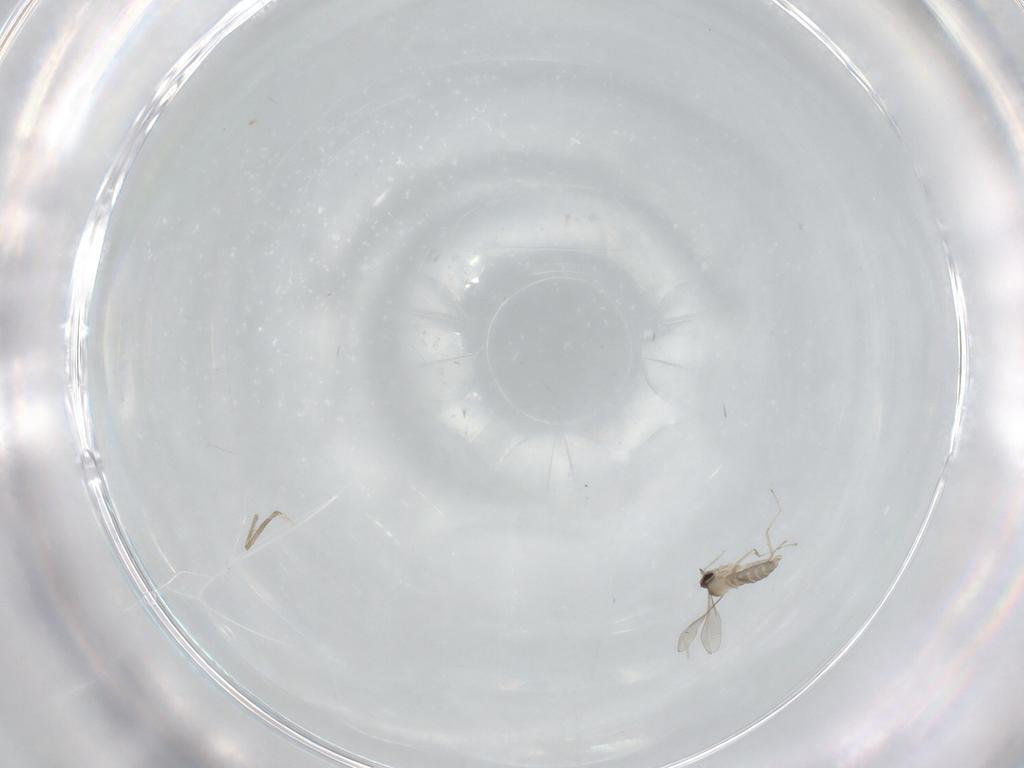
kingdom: Animalia
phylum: Arthropoda
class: Insecta
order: Diptera
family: Chironomidae
